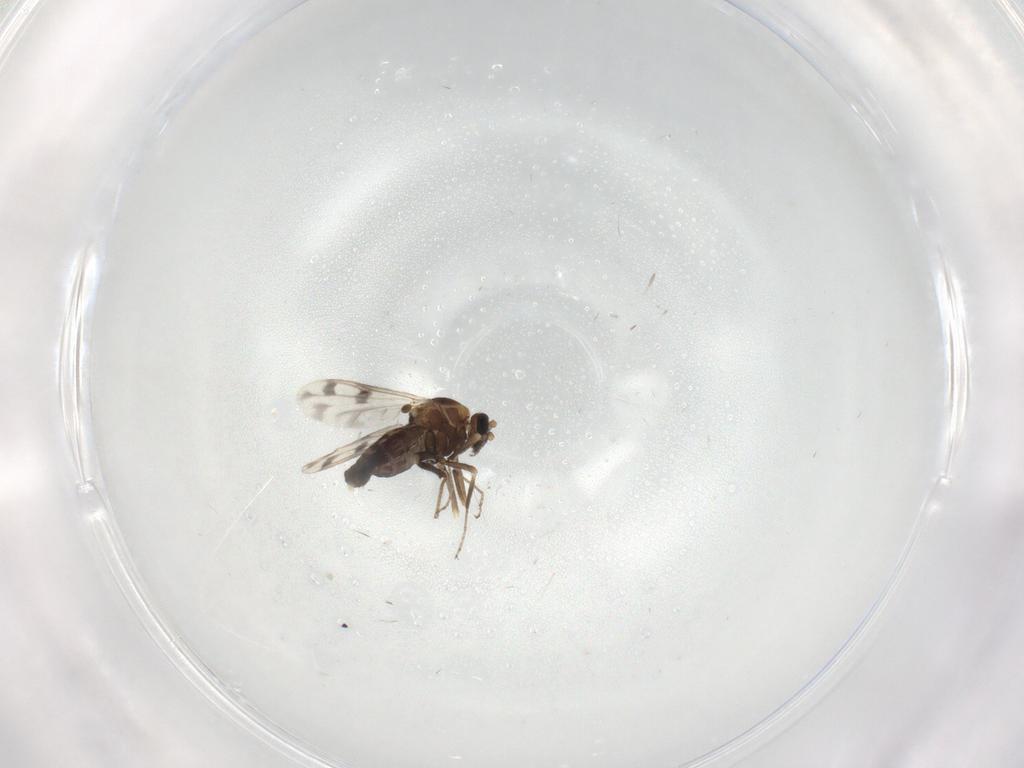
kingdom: Animalia
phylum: Arthropoda
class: Insecta
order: Diptera
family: Ceratopogonidae
